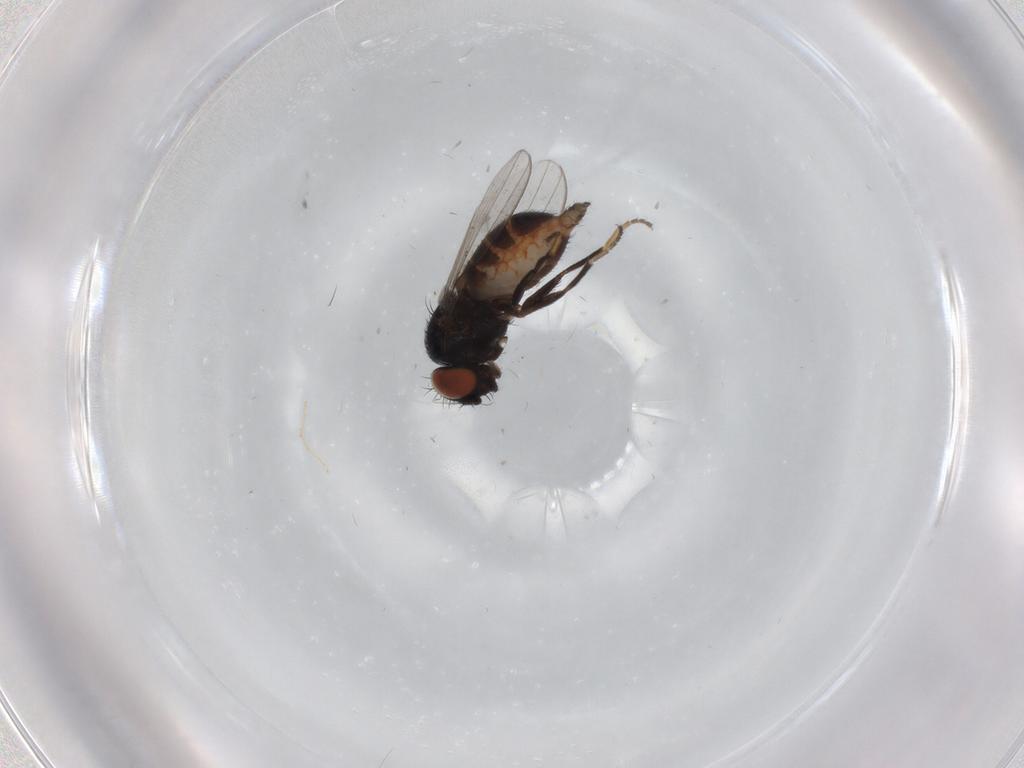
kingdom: Animalia
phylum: Arthropoda
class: Insecta
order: Diptera
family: Milichiidae
